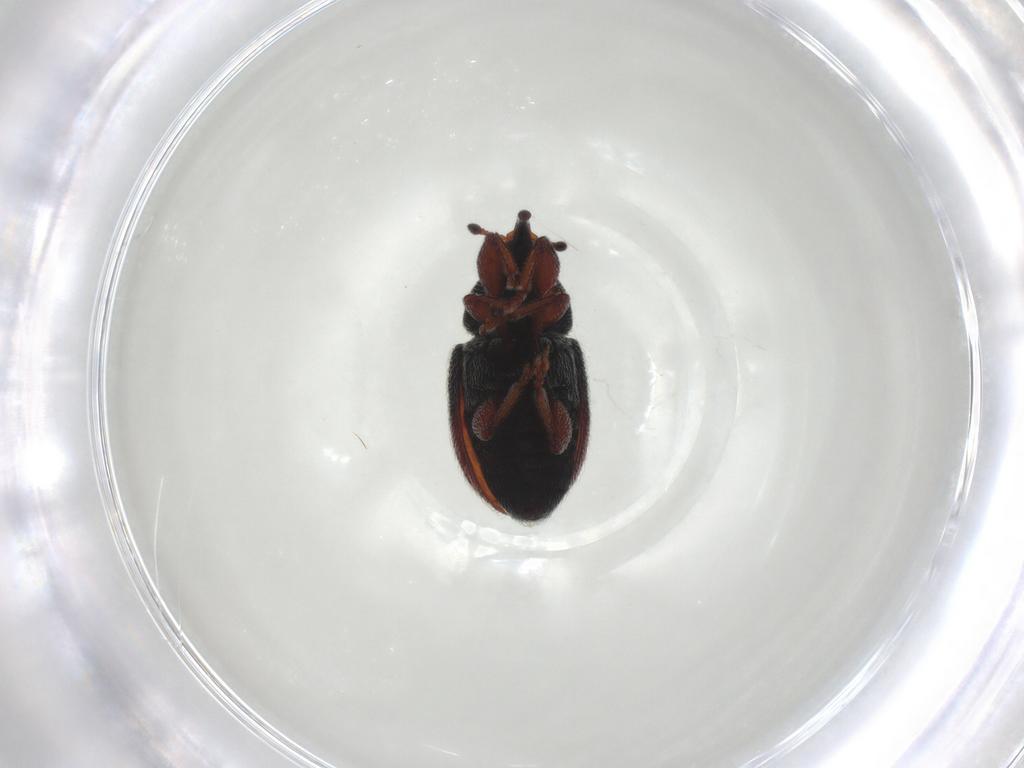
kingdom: Animalia
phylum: Arthropoda
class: Insecta
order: Coleoptera
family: Curculionidae
